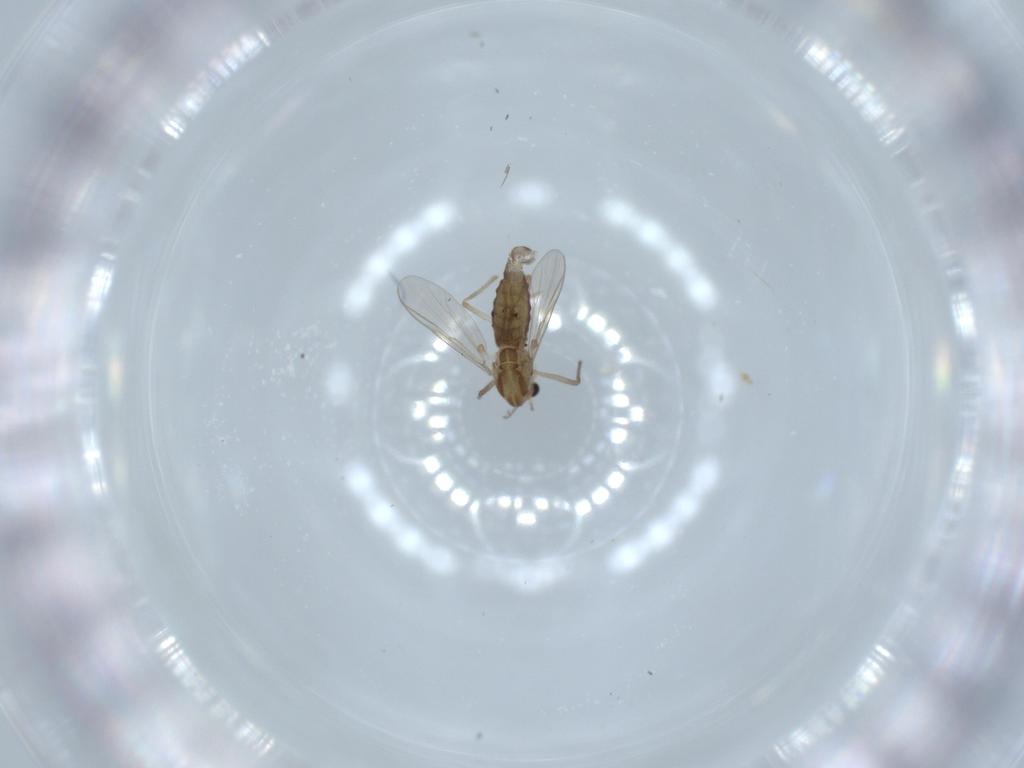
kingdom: Animalia
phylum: Arthropoda
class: Insecta
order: Diptera
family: Chironomidae
